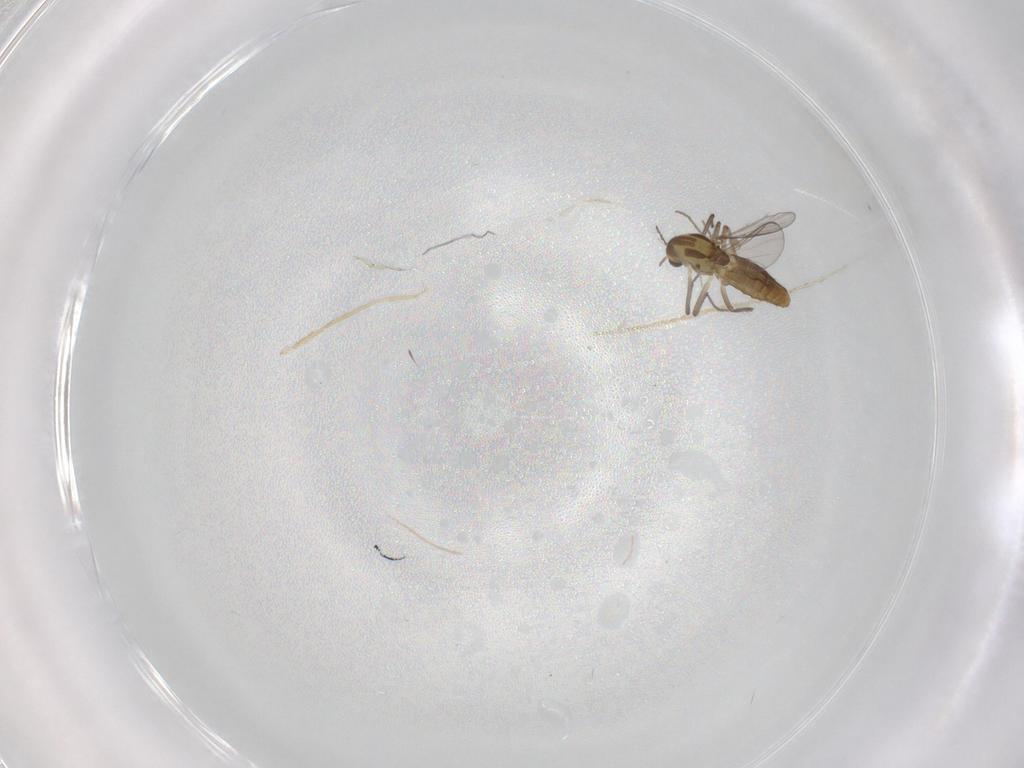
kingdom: Animalia
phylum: Arthropoda
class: Insecta
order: Diptera
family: Chironomidae
